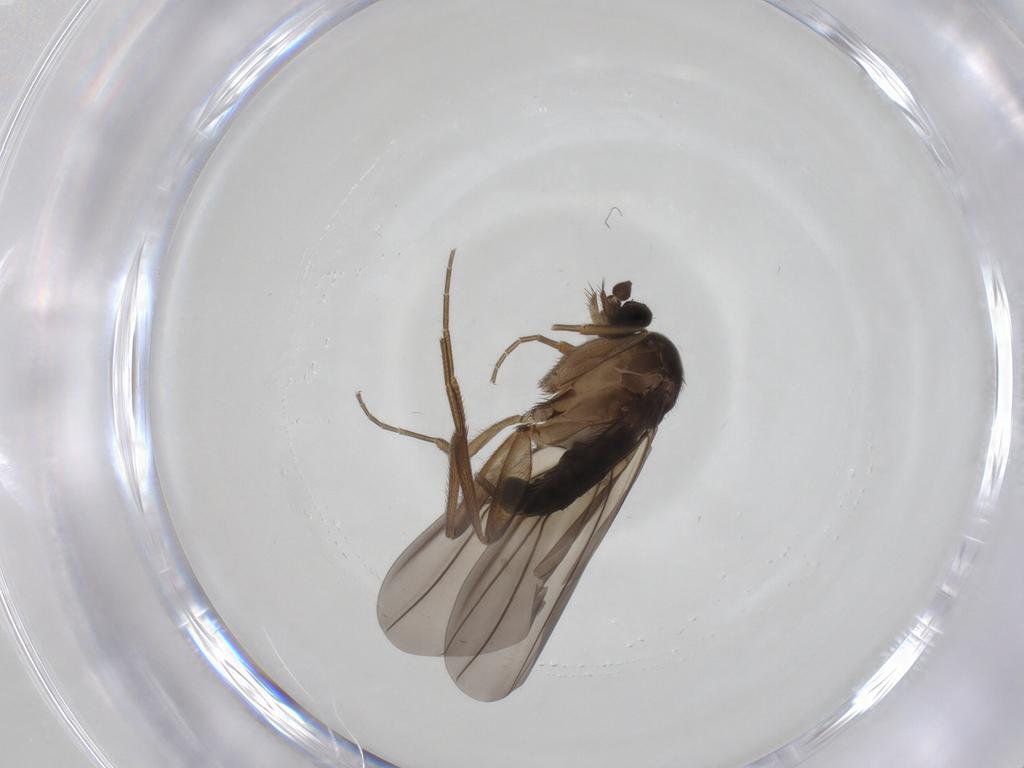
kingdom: Animalia
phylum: Arthropoda
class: Insecta
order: Diptera
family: Phoridae
